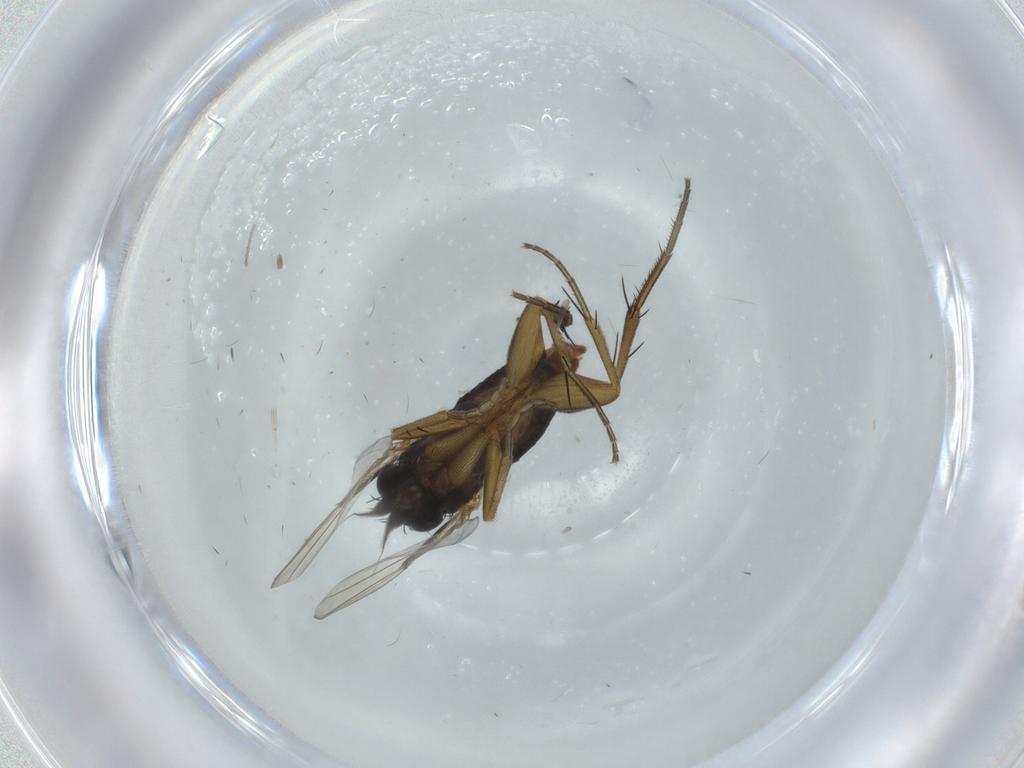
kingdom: Animalia
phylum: Arthropoda
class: Insecta
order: Diptera
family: Phoridae
